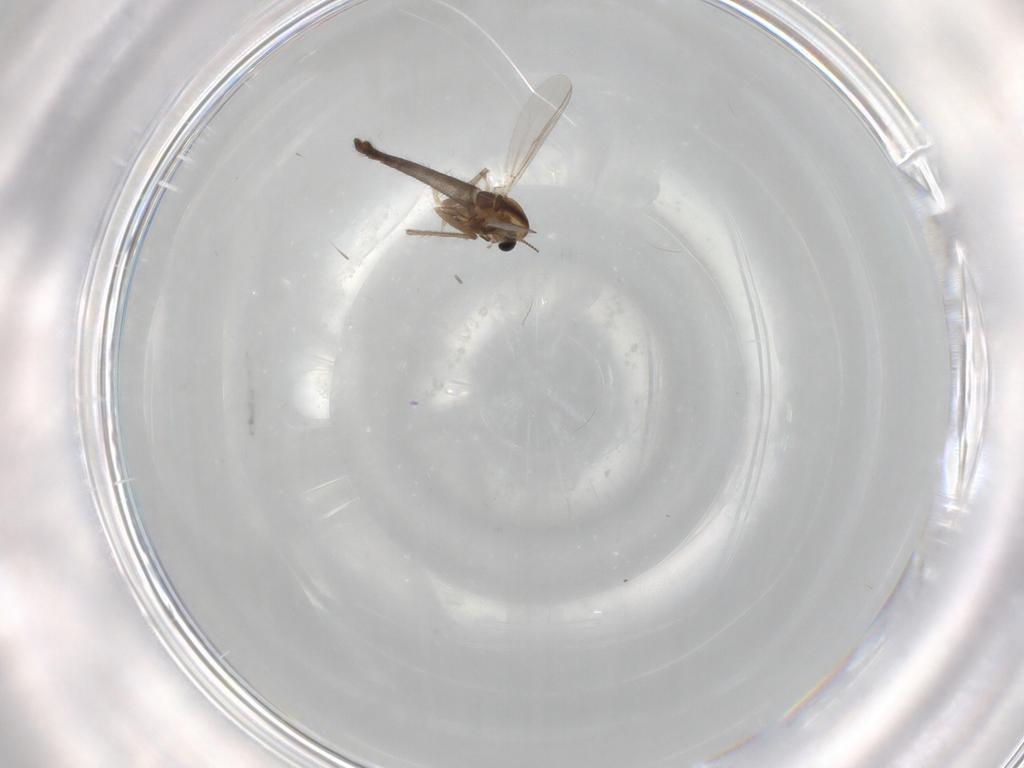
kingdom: Animalia
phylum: Arthropoda
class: Insecta
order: Diptera
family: Chironomidae
